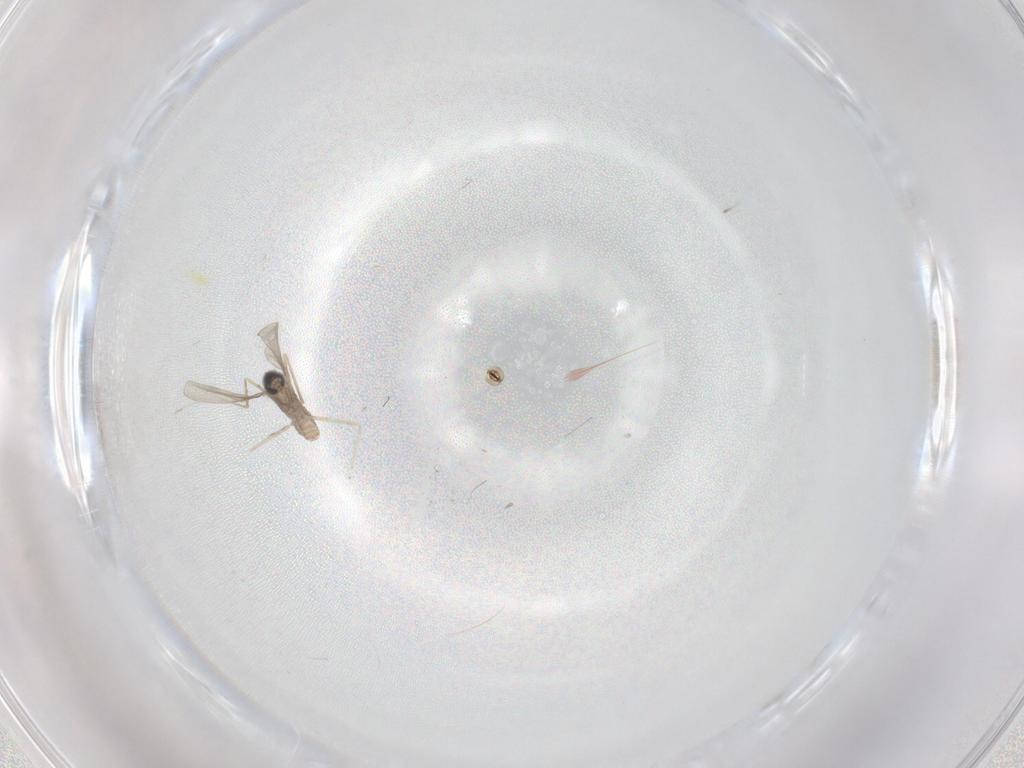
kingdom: Animalia
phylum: Arthropoda
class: Insecta
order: Diptera
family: Cecidomyiidae
